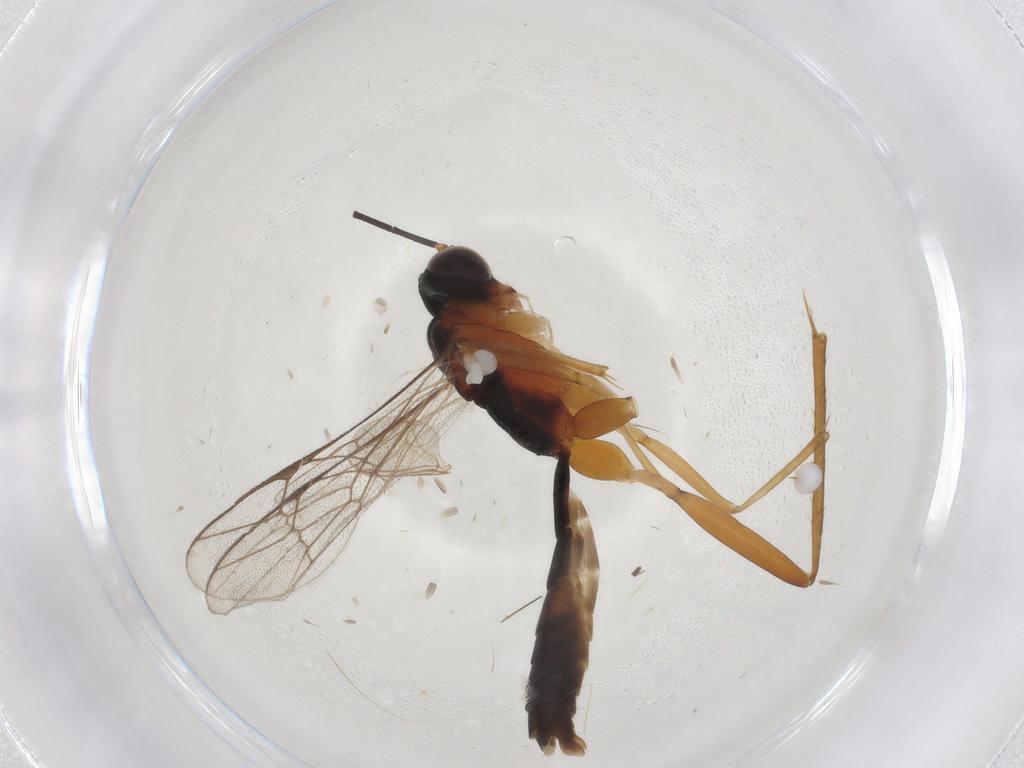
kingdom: Animalia
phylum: Arthropoda
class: Insecta
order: Hymenoptera
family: Ichneumonidae
